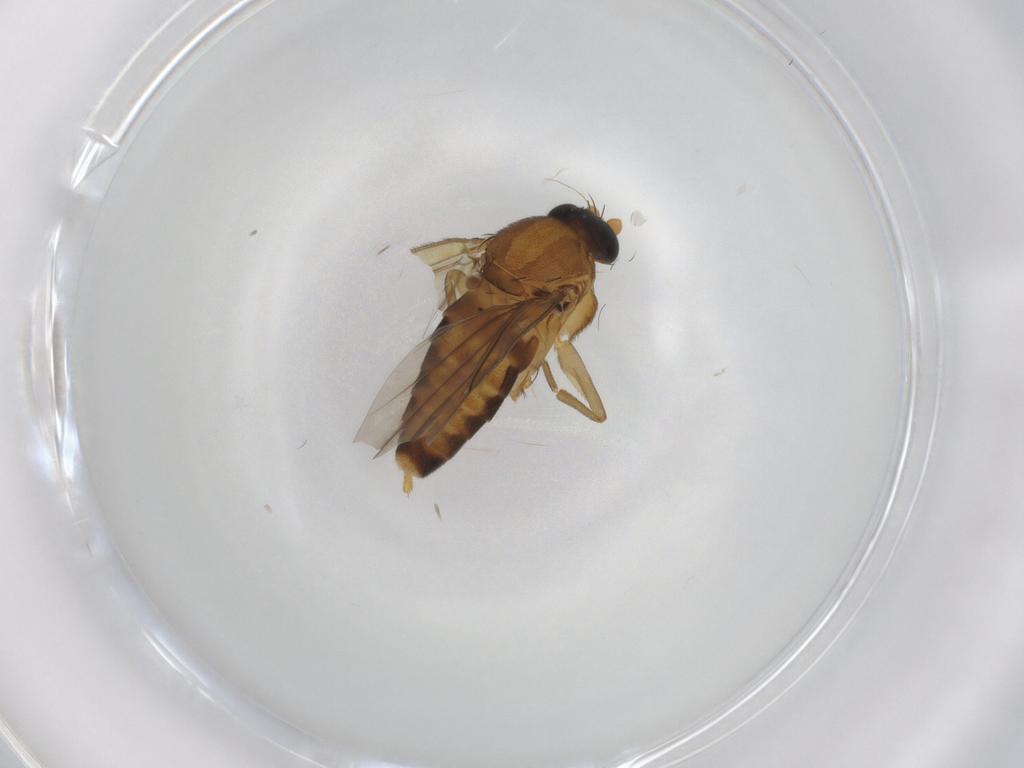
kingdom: Animalia
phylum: Arthropoda
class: Insecta
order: Diptera
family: Cecidomyiidae
